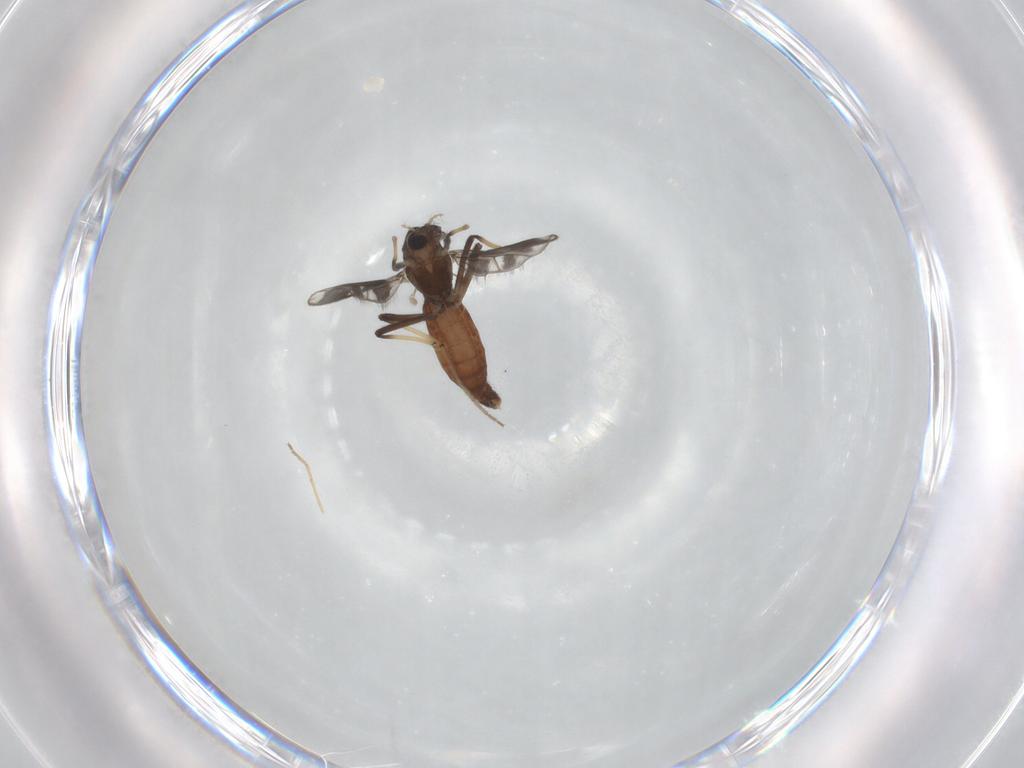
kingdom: Animalia
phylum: Arthropoda
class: Insecta
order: Diptera
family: Chironomidae
